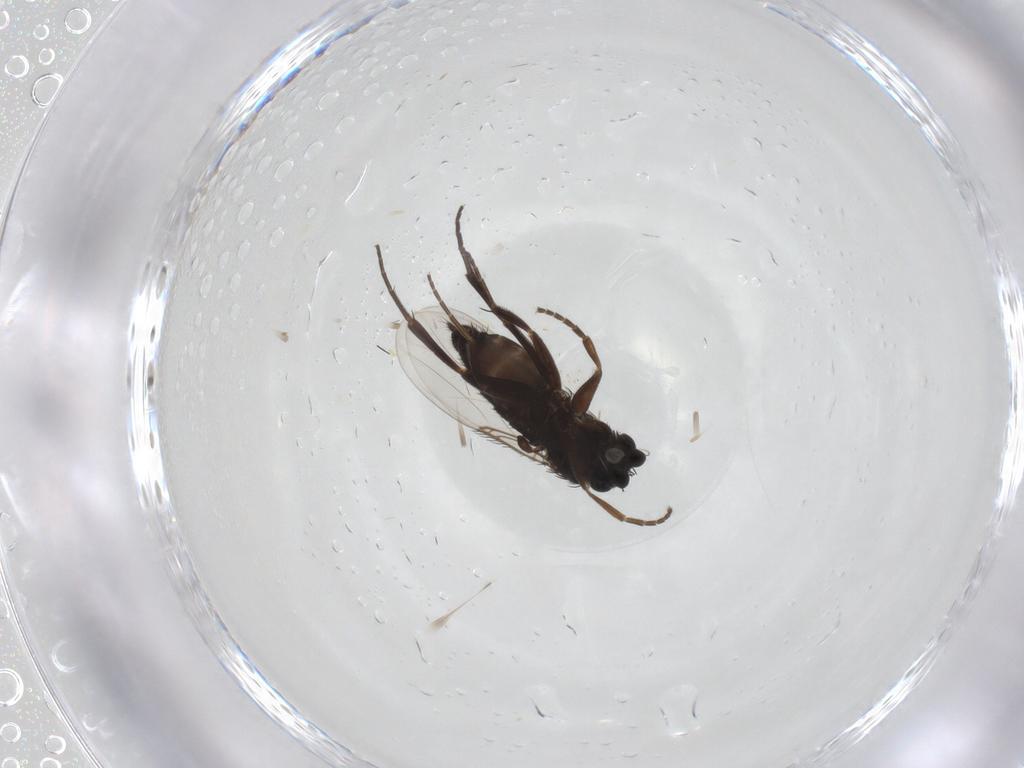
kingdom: Animalia
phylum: Arthropoda
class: Insecta
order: Diptera
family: Phoridae
